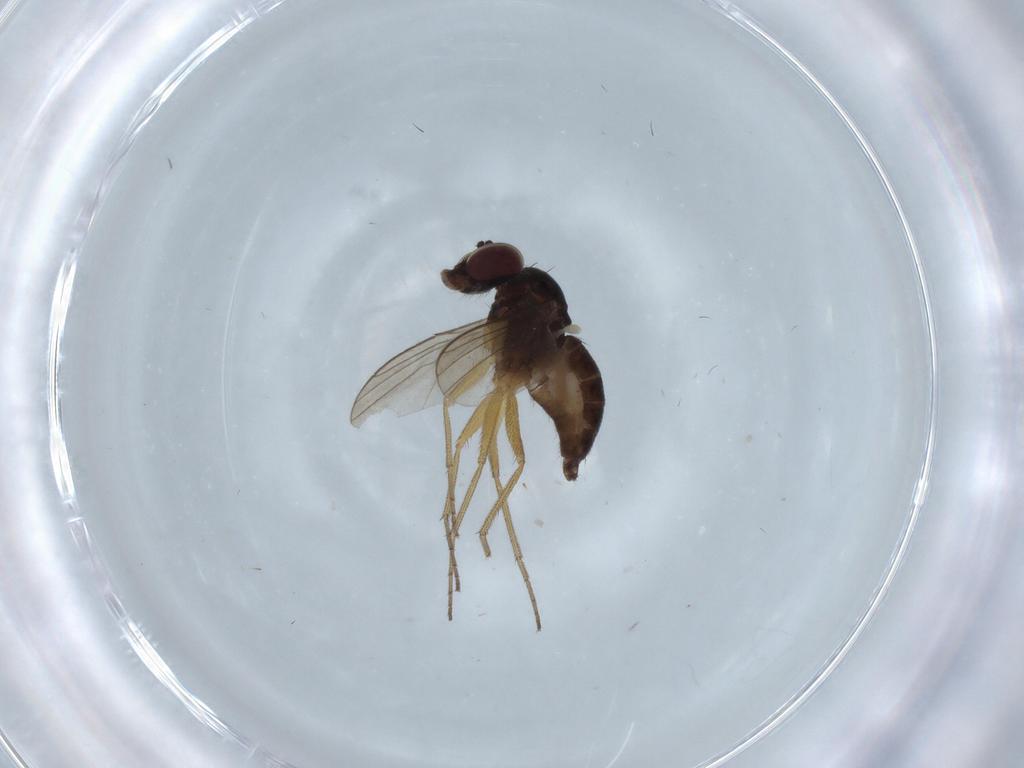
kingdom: Animalia
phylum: Arthropoda
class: Insecta
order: Diptera
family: Dolichopodidae
